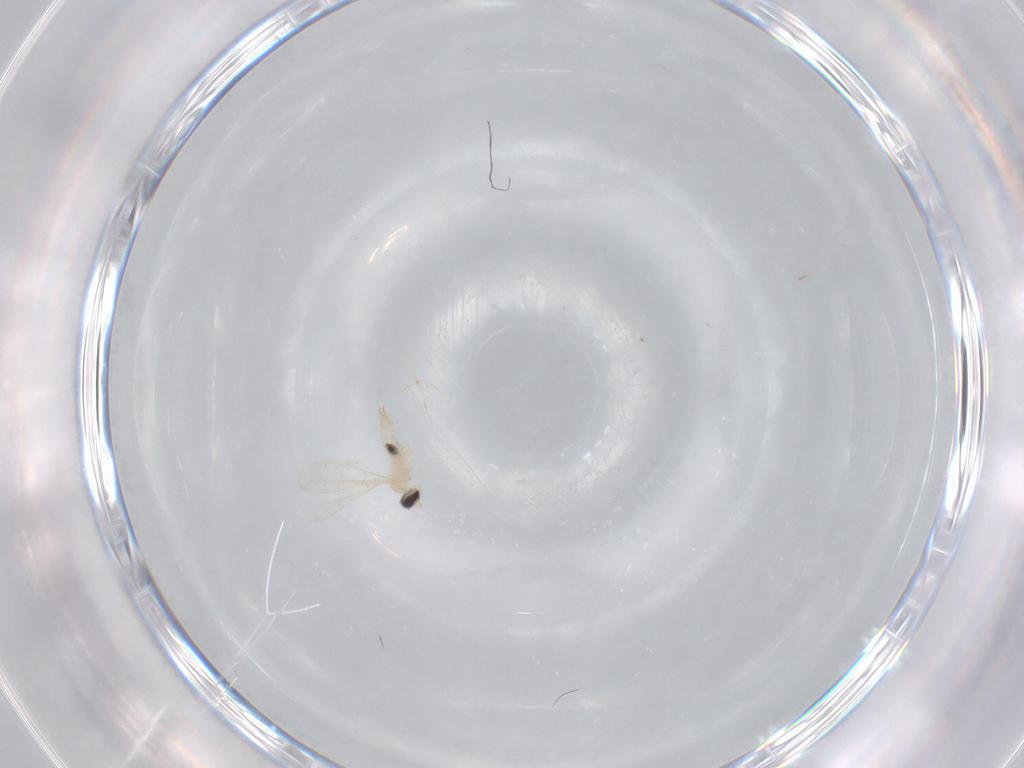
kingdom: Animalia
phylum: Arthropoda
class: Insecta
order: Diptera
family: Cecidomyiidae
